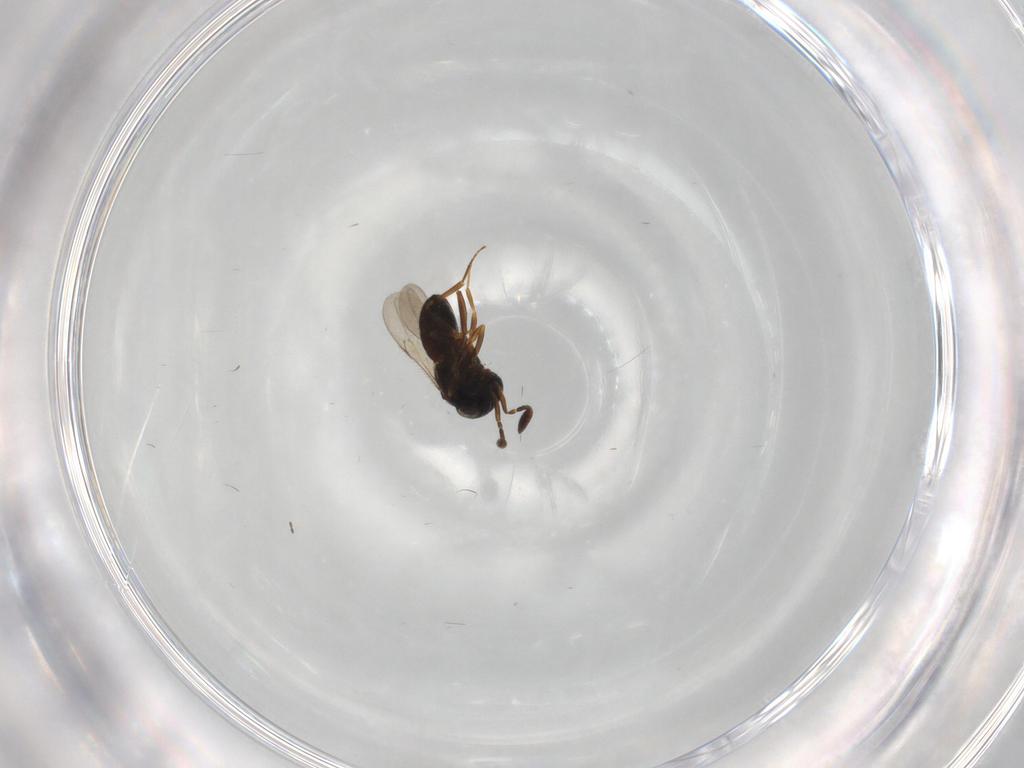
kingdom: Animalia
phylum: Arthropoda
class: Insecta
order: Hymenoptera
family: Scelionidae
